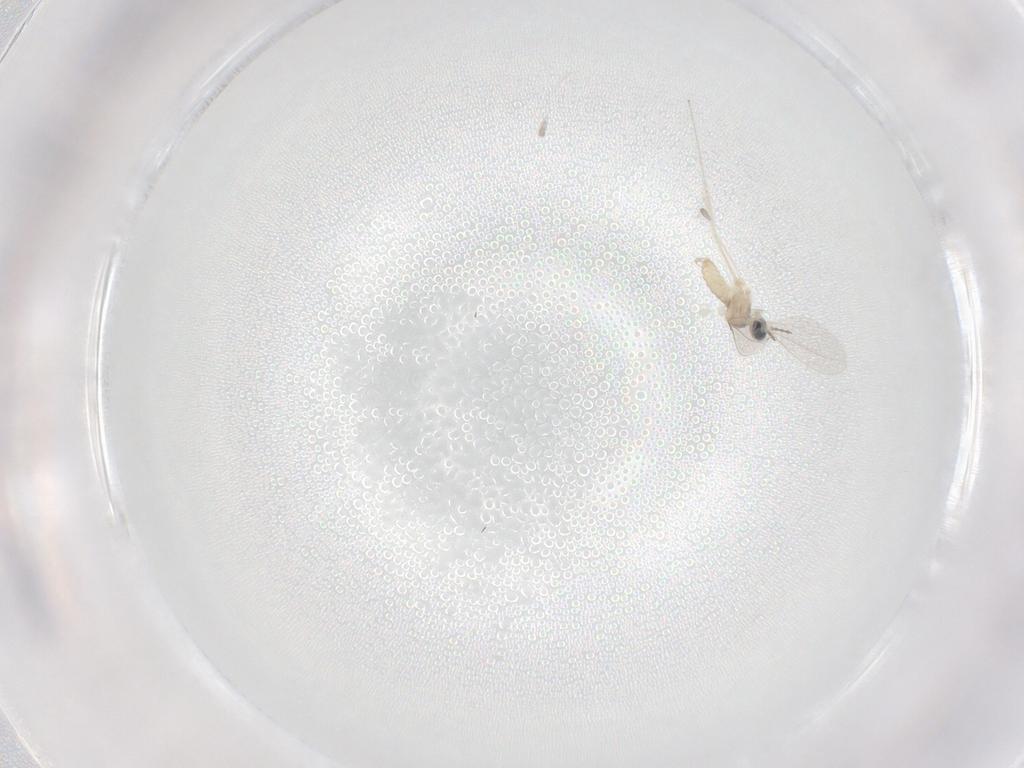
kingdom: Animalia
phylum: Arthropoda
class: Insecta
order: Diptera
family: Cecidomyiidae
